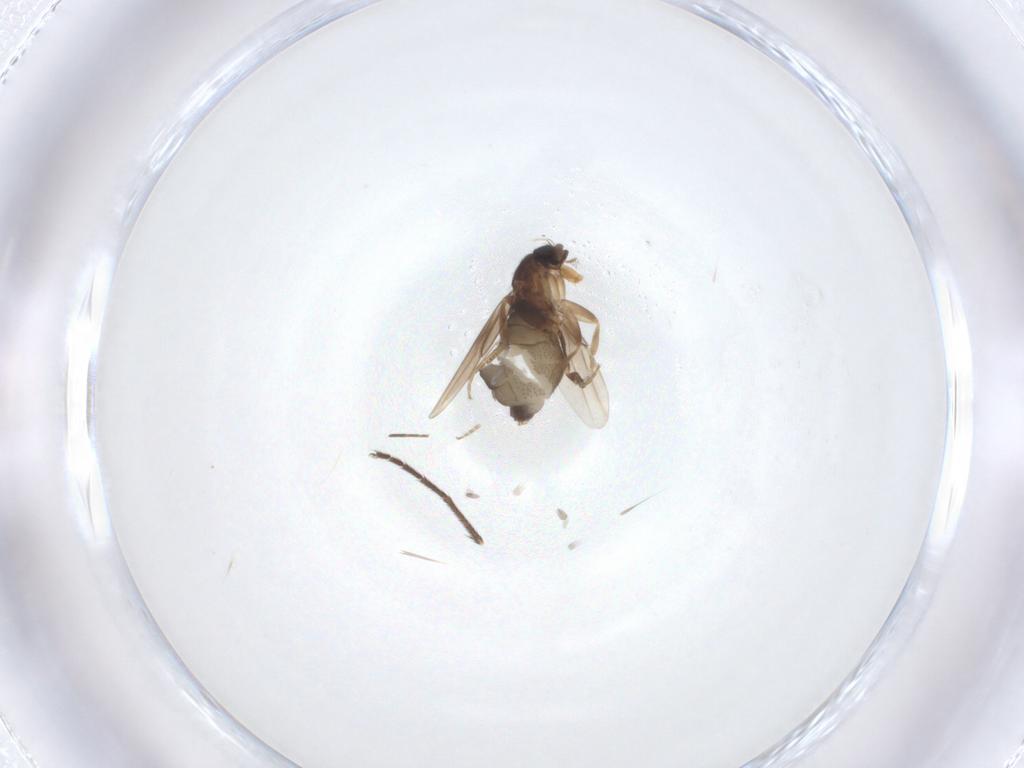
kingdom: Animalia
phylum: Arthropoda
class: Insecta
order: Diptera
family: Phoridae
